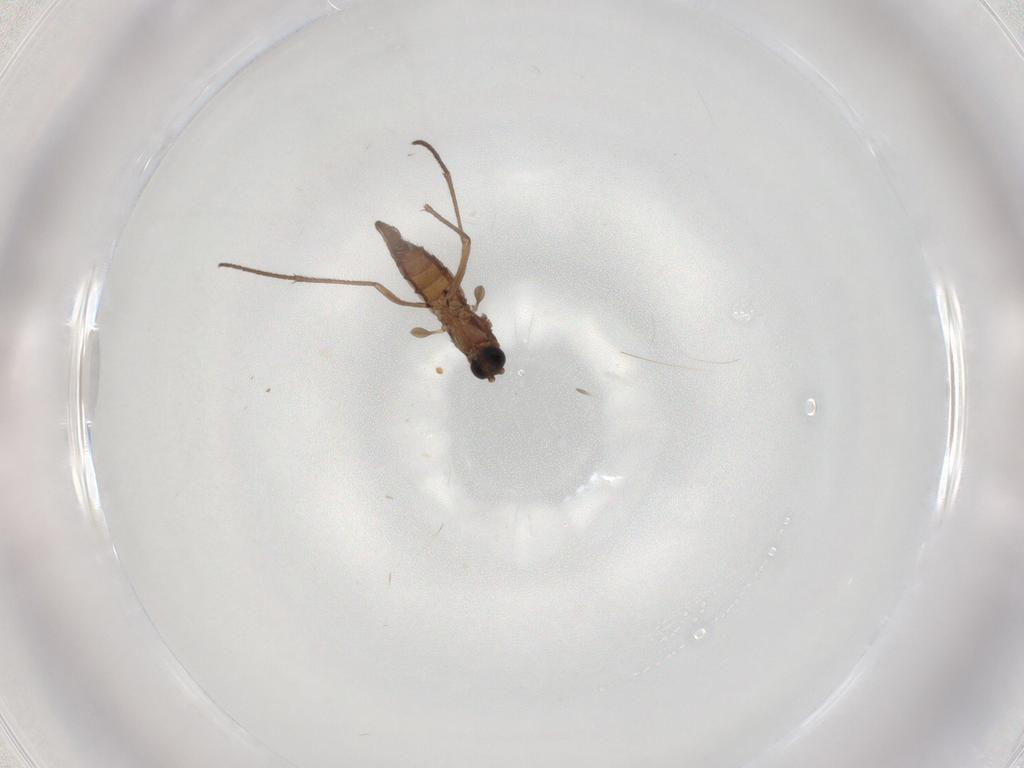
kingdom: Animalia
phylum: Arthropoda
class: Insecta
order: Diptera
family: Sciaridae
